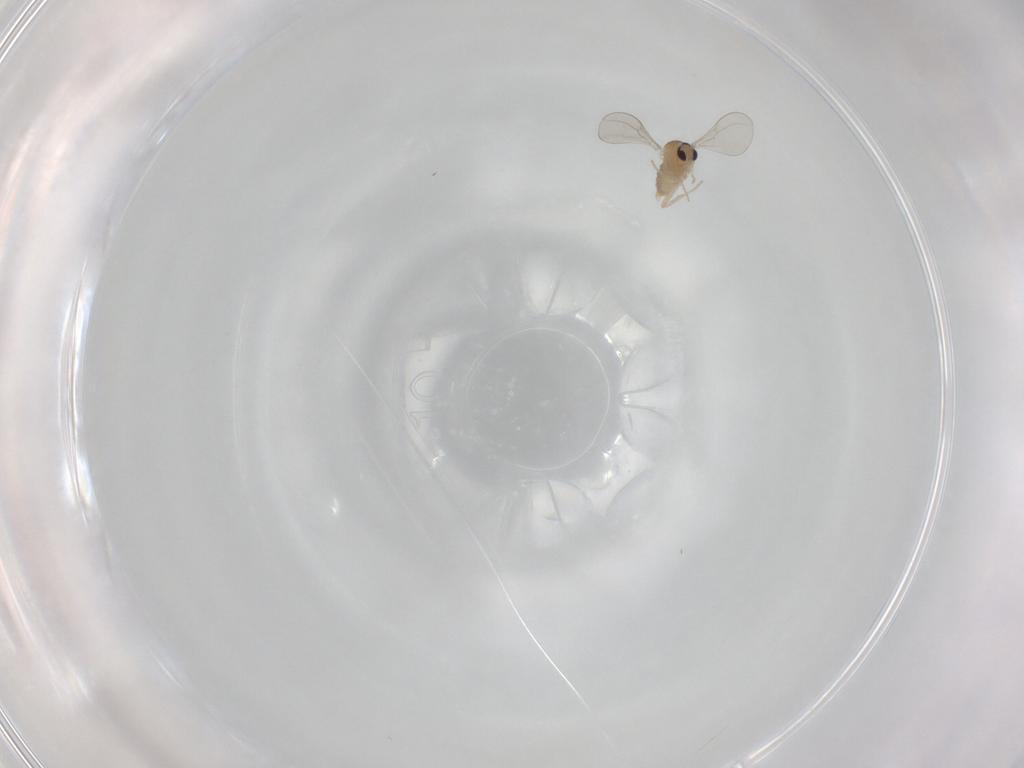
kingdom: Animalia
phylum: Arthropoda
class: Insecta
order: Diptera
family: Cecidomyiidae
